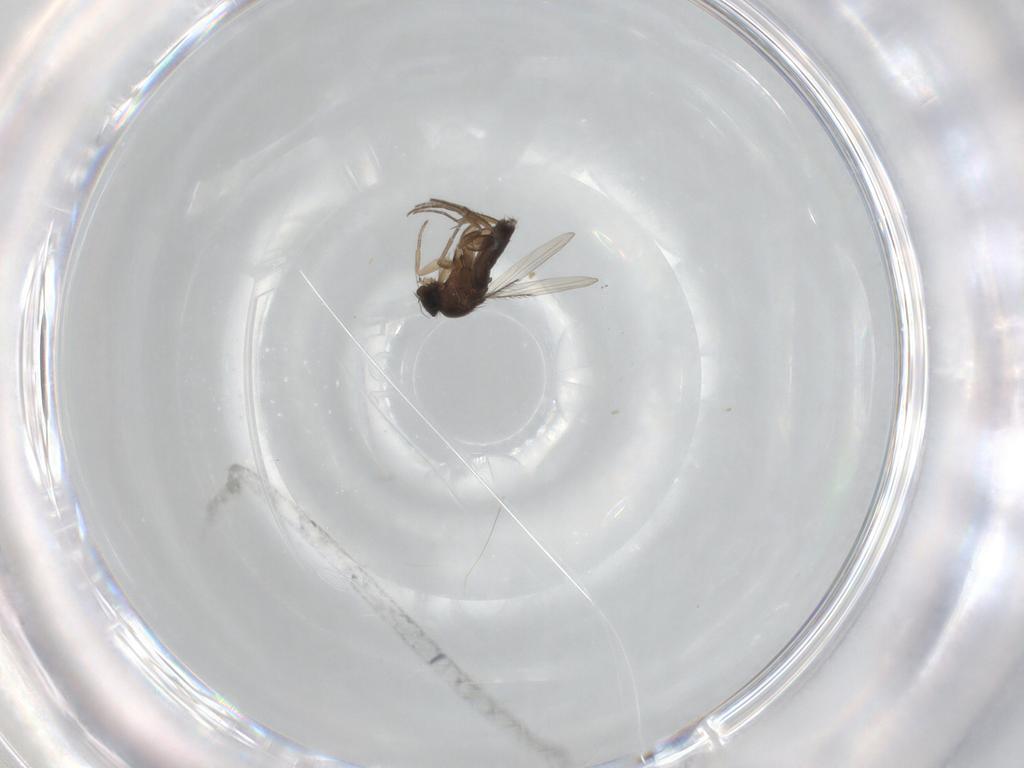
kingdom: Animalia
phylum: Arthropoda
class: Insecta
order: Diptera
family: Phoridae
